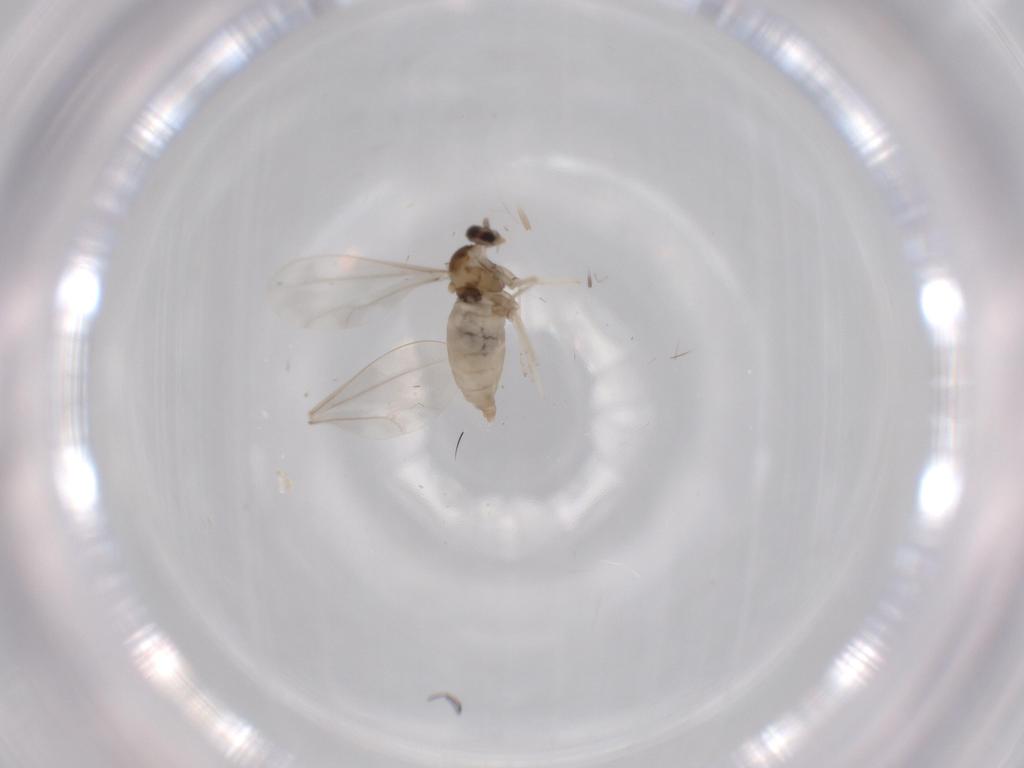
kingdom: Animalia
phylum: Arthropoda
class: Insecta
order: Diptera
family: Cecidomyiidae
